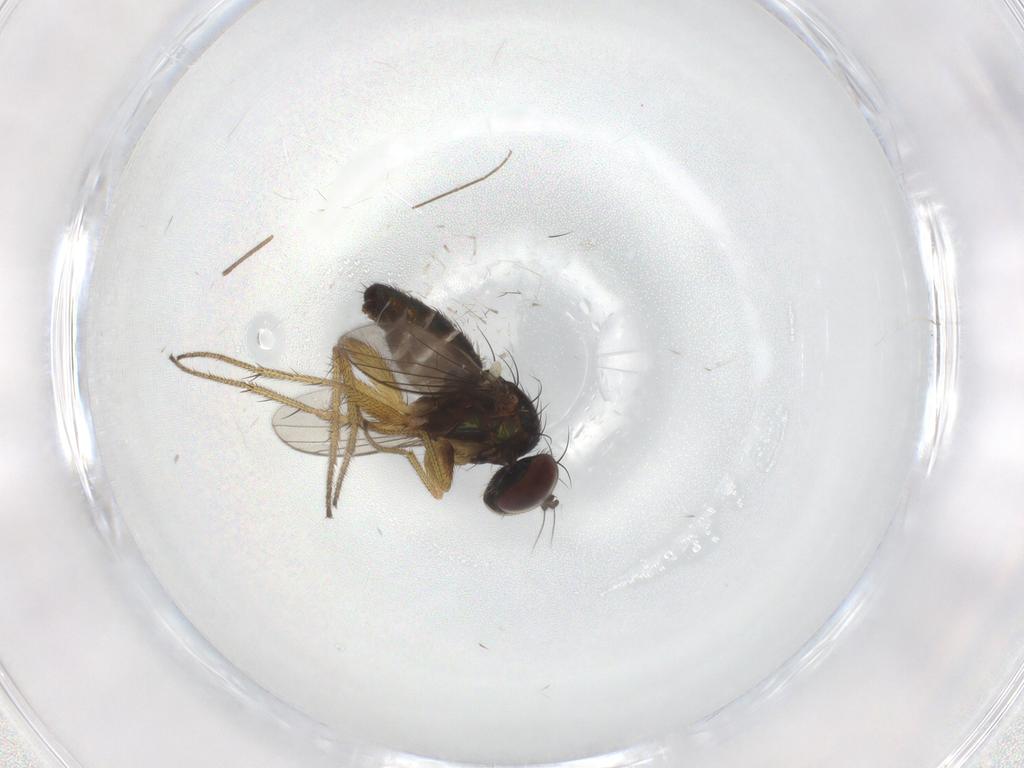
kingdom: Animalia
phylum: Arthropoda
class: Insecta
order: Diptera
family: Chironomidae
